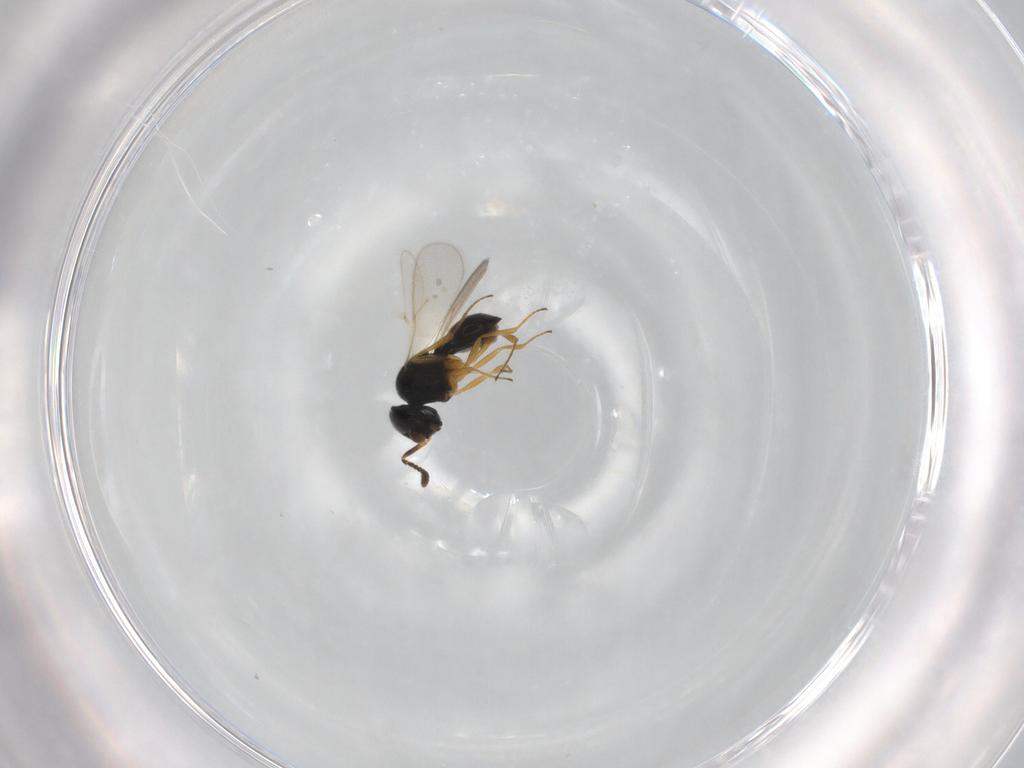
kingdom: Animalia
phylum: Arthropoda
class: Insecta
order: Hymenoptera
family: Scelionidae
